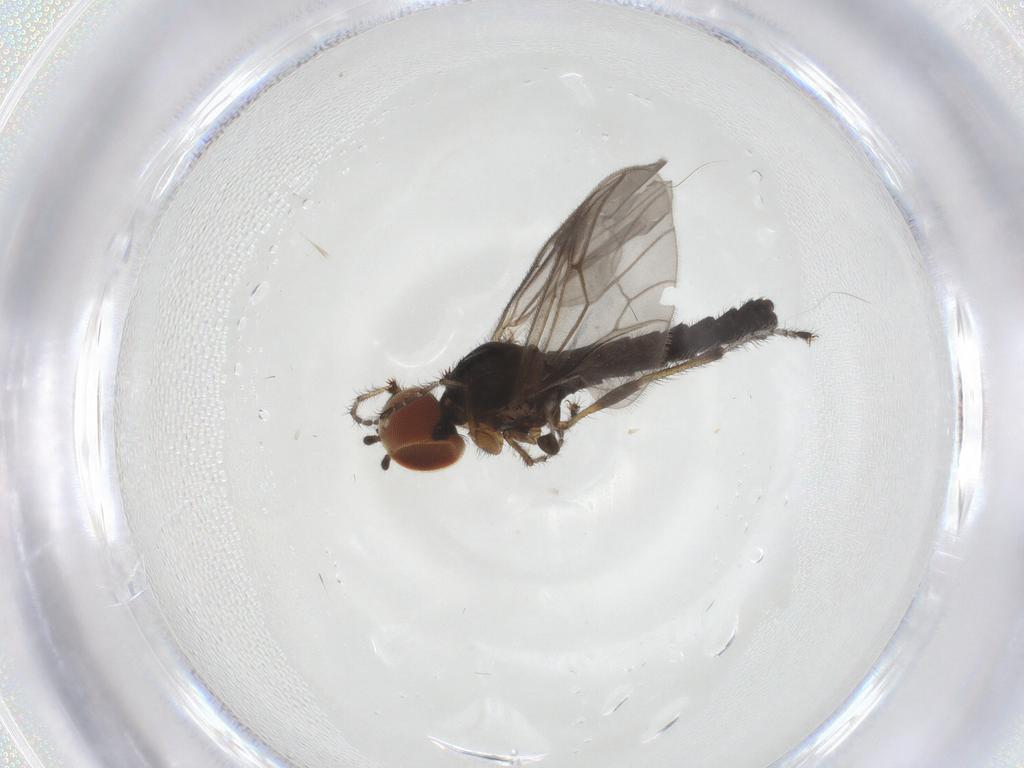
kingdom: Animalia
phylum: Arthropoda
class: Insecta
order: Diptera
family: Bibionidae
